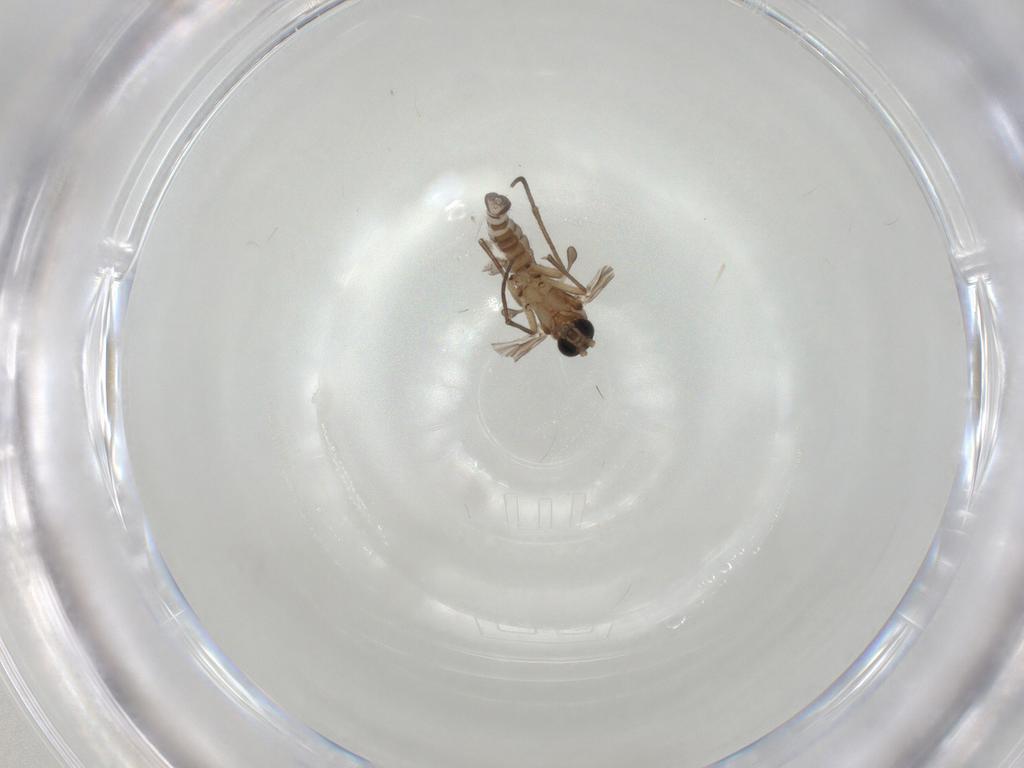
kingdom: Animalia
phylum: Arthropoda
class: Insecta
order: Diptera
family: Sciaridae
